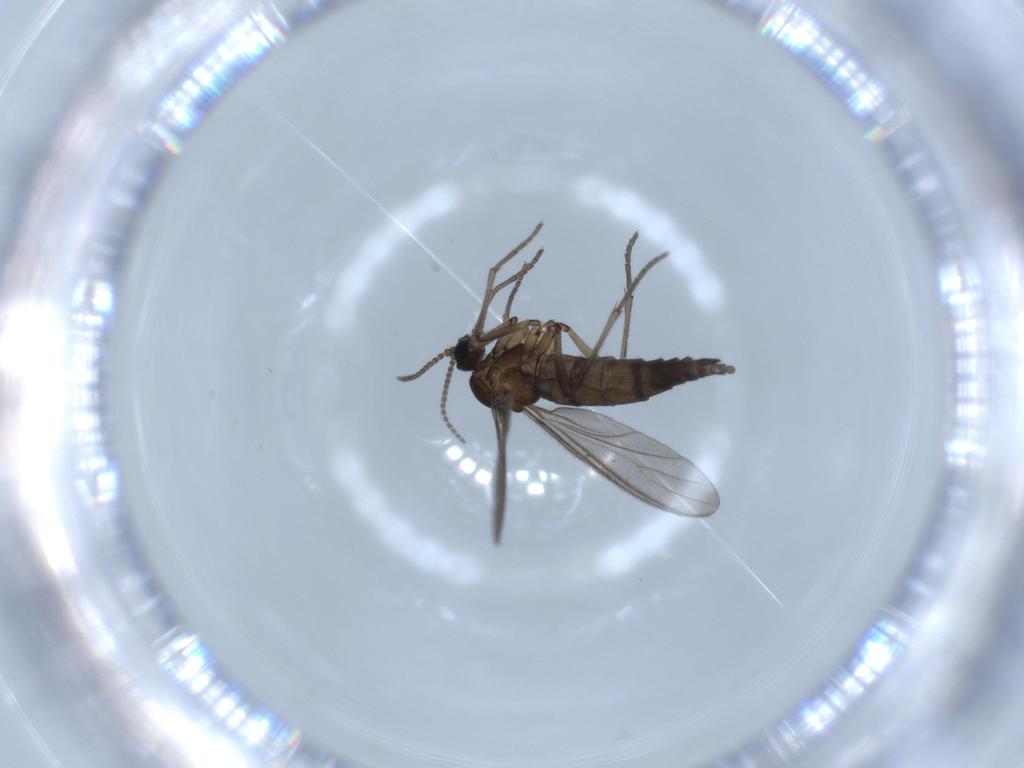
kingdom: Animalia
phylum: Arthropoda
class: Insecta
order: Diptera
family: Sciaridae
